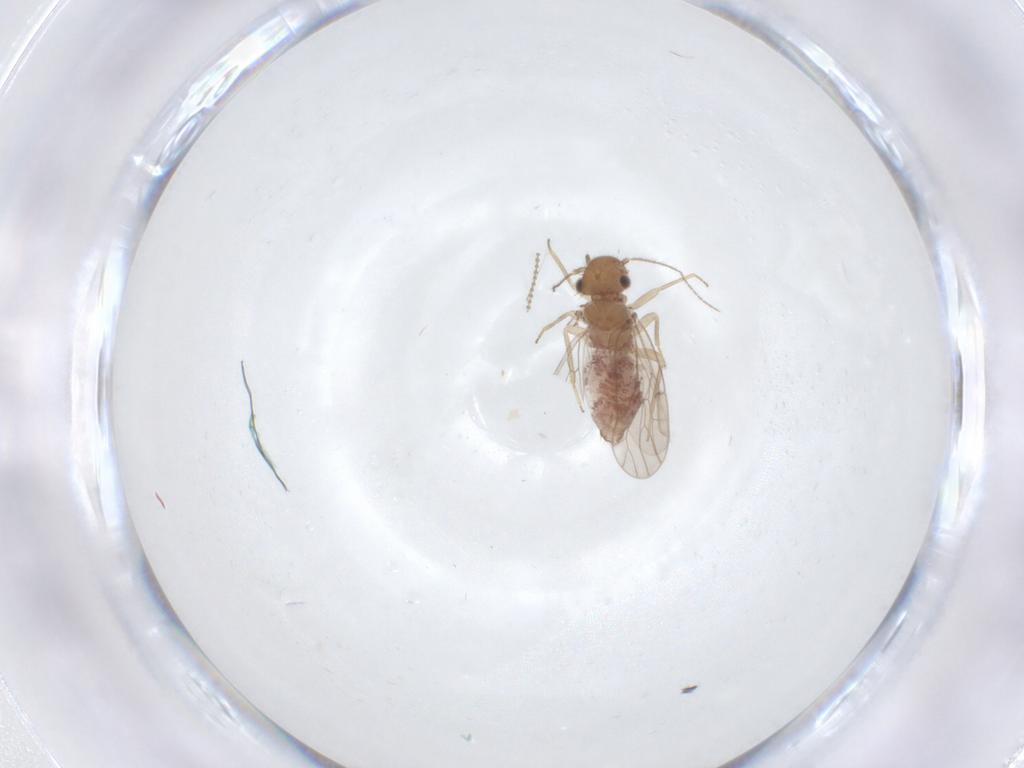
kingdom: Animalia
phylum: Arthropoda
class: Insecta
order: Psocodea
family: Ectopsocidae
